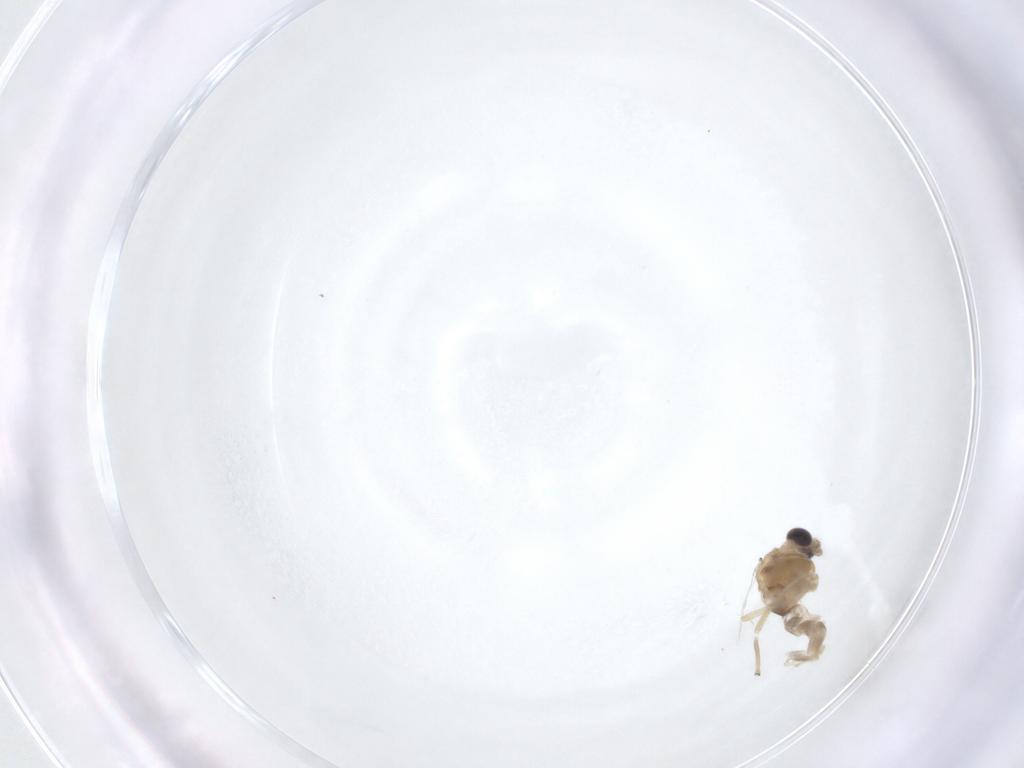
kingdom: Animalia
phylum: Arthropoda
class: Insecta
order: Diptera
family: Chironomidae
